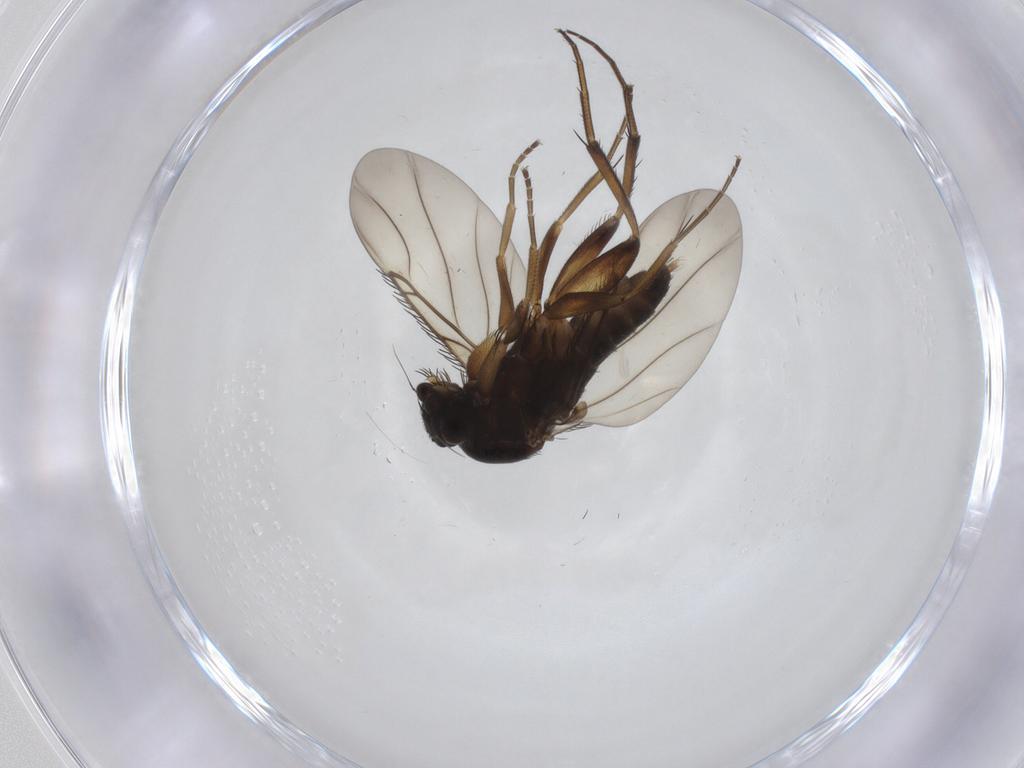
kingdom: Animalia
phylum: Arthropoda
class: Insecta
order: Diptera
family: Phoridae
